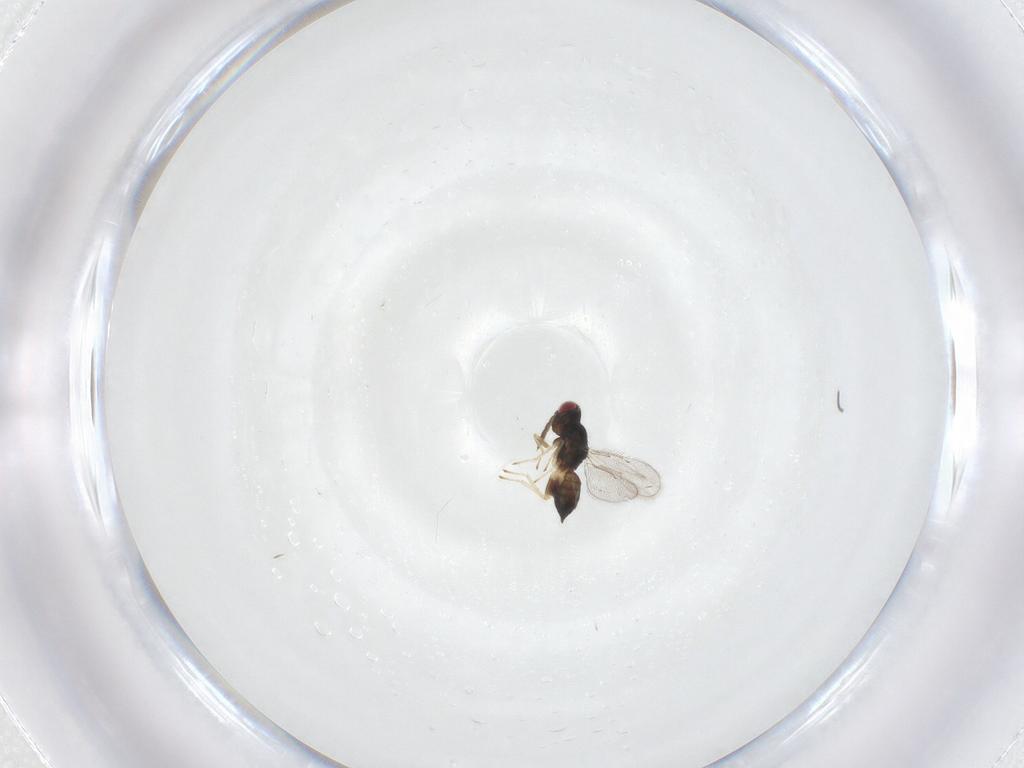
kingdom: Animalia
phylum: Arthropoda
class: Insecta
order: Hymenoptera
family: Eulophidae
